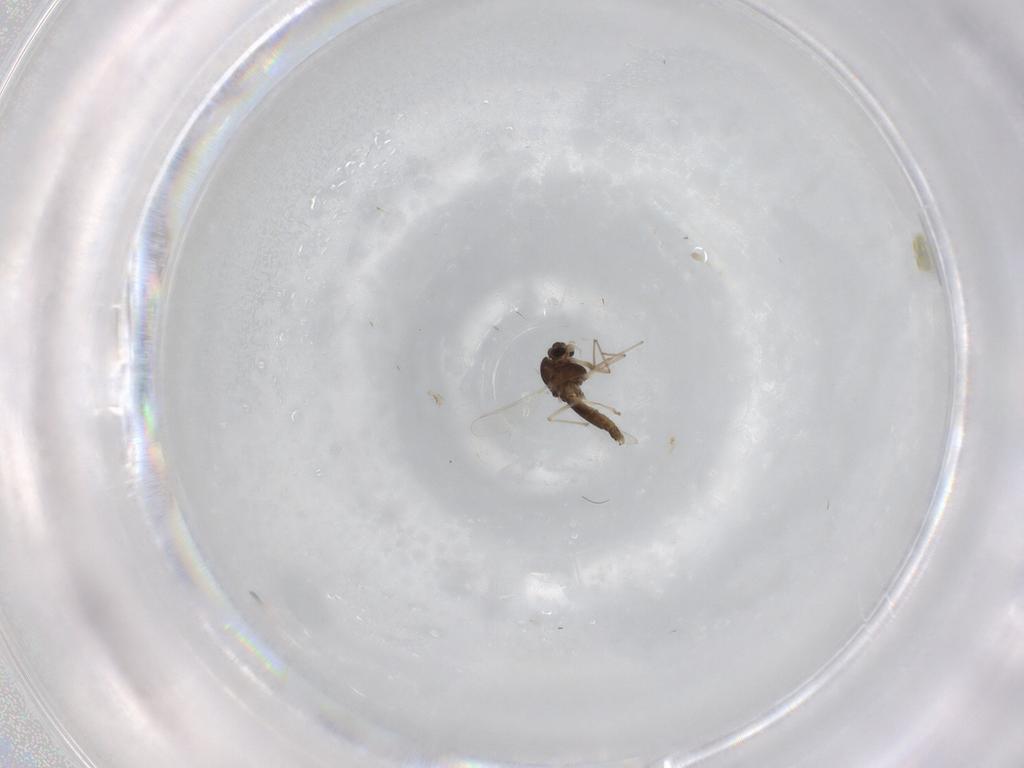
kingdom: Animalia
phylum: Arthropoda
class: Insecta
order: Diptera
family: Chironomidae
